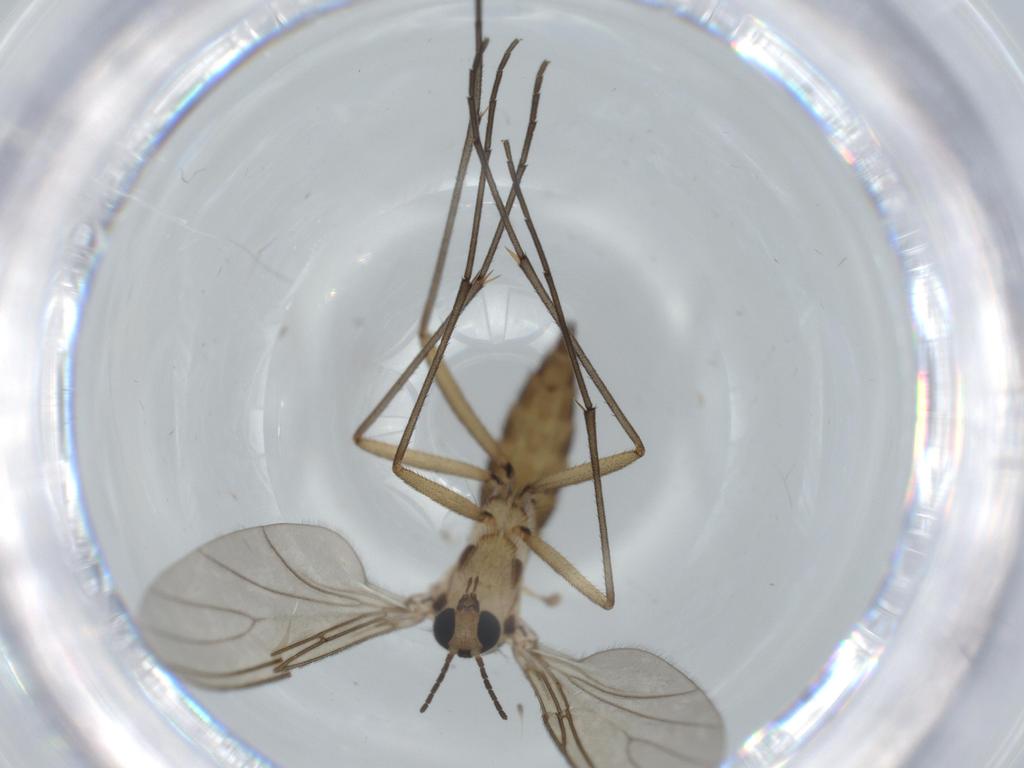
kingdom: Animalia
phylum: Arthropoda
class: Insecta
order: Diptera
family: Sciaridae
